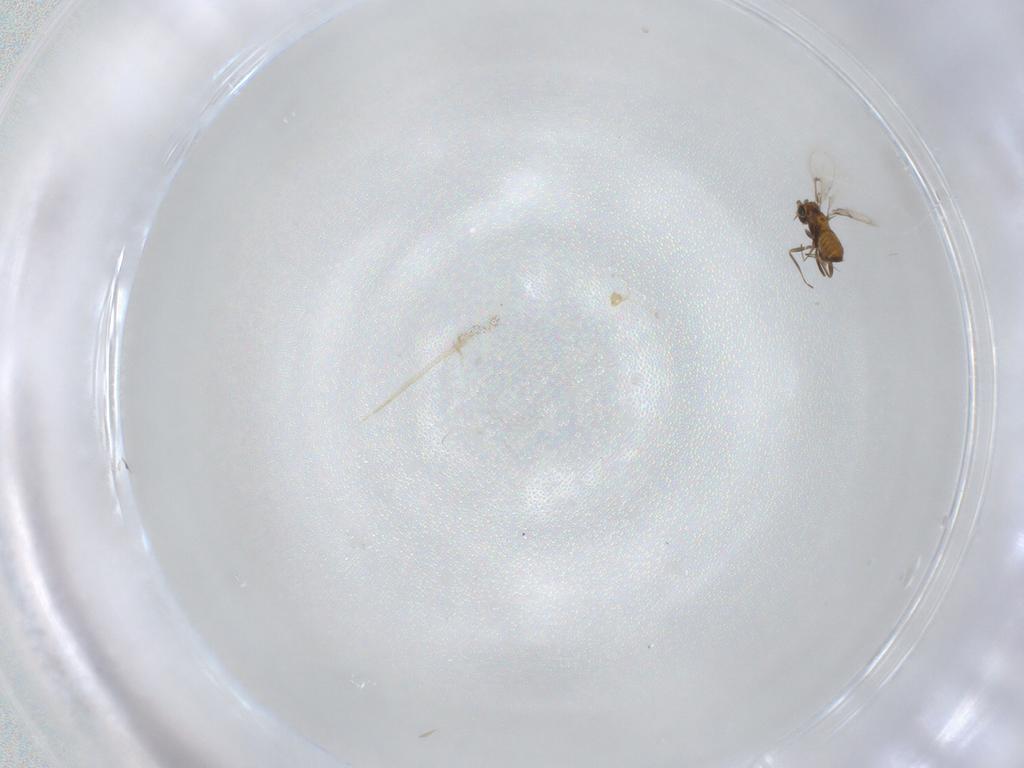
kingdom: Animalia
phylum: Arthropoda
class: Insecta
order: Hymenoptera
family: Trichogrammatidae
